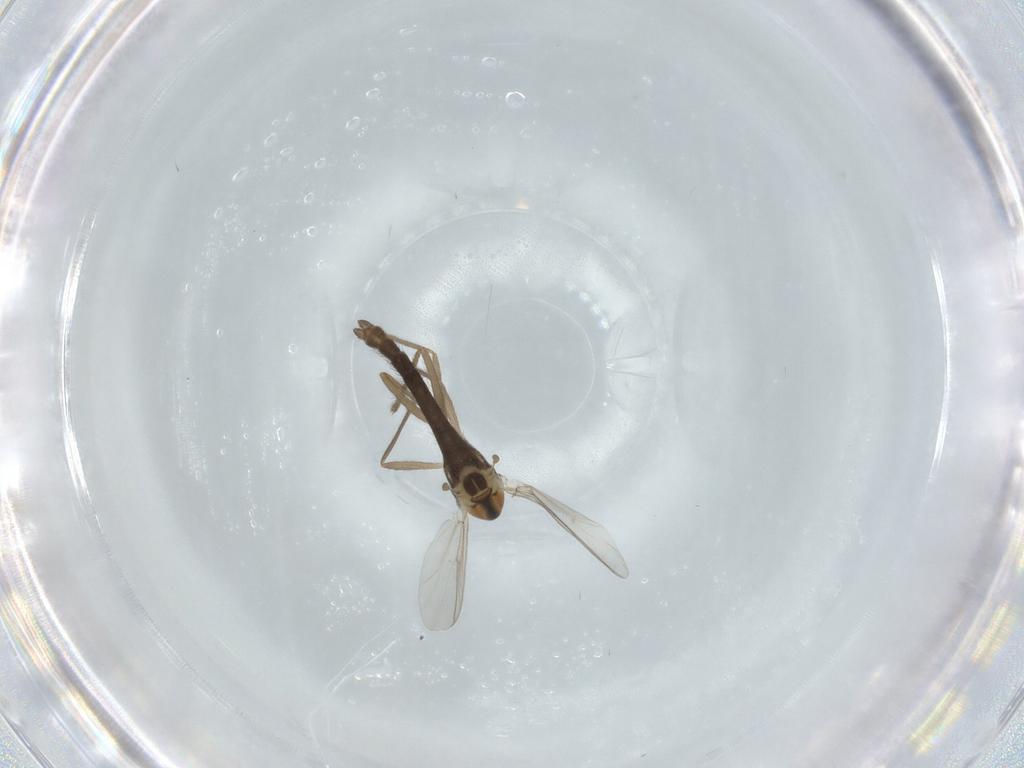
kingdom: Animalia
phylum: Arthropoda
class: Insecta
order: Diptera
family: Chironomidae
